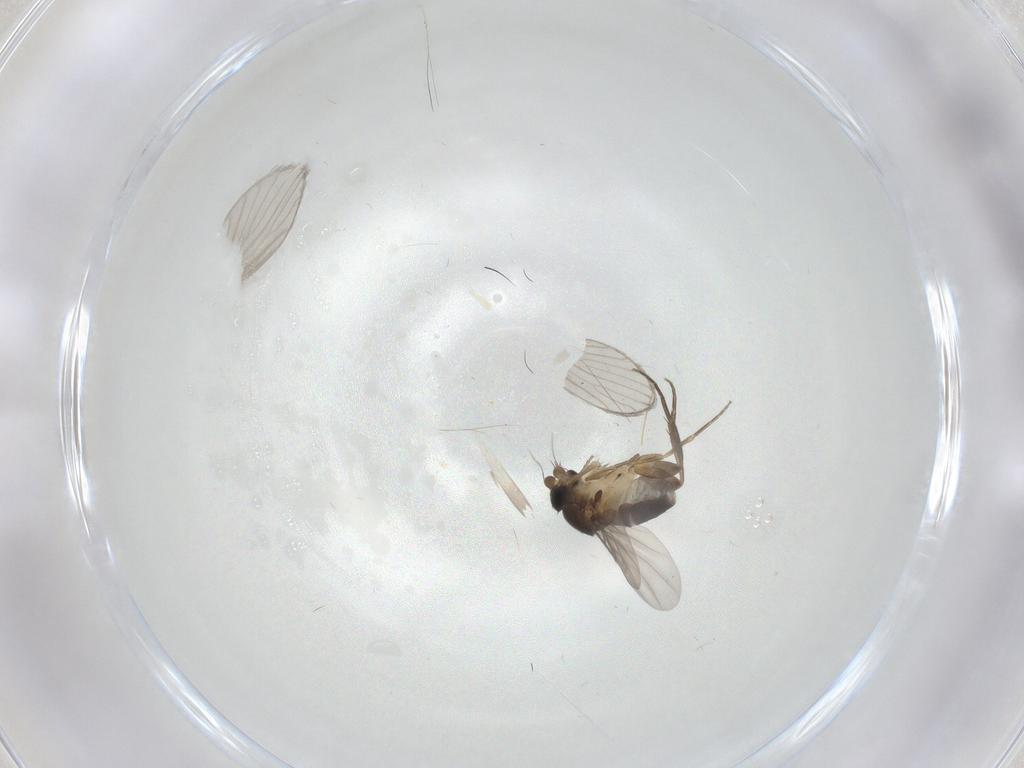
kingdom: Animalia
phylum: Arthropoda
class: Insecta
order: Diptera
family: Phoridae
